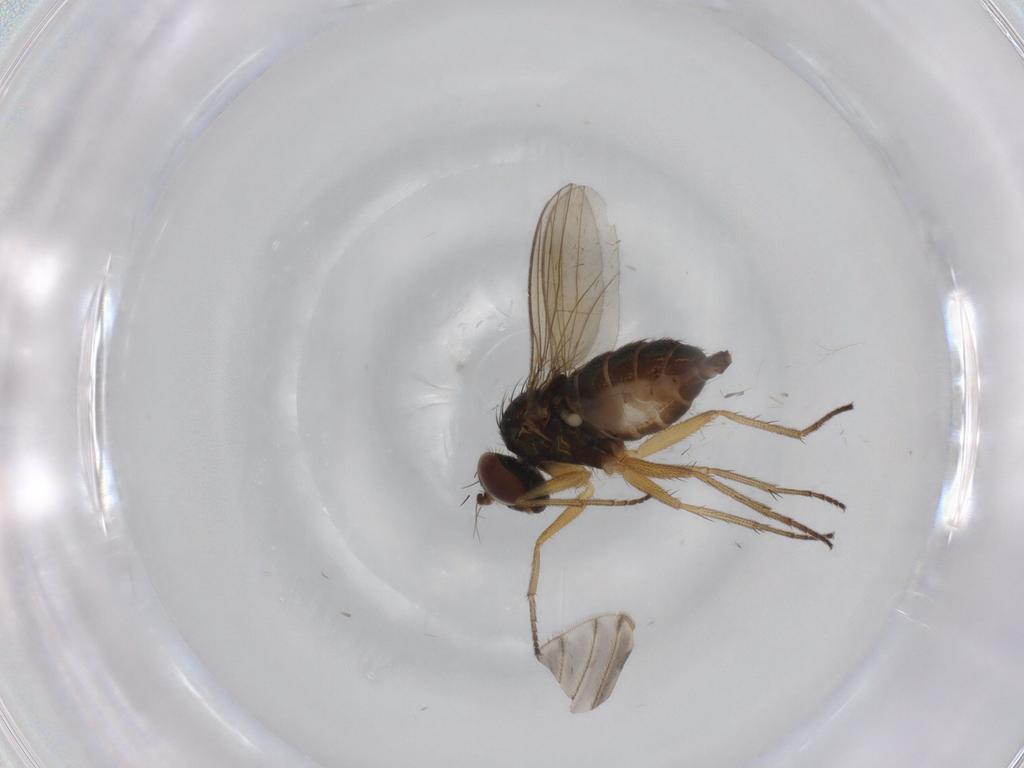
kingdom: Animalia
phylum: Arthropoda
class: Insecta
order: Diptera
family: Dolichopodidae
